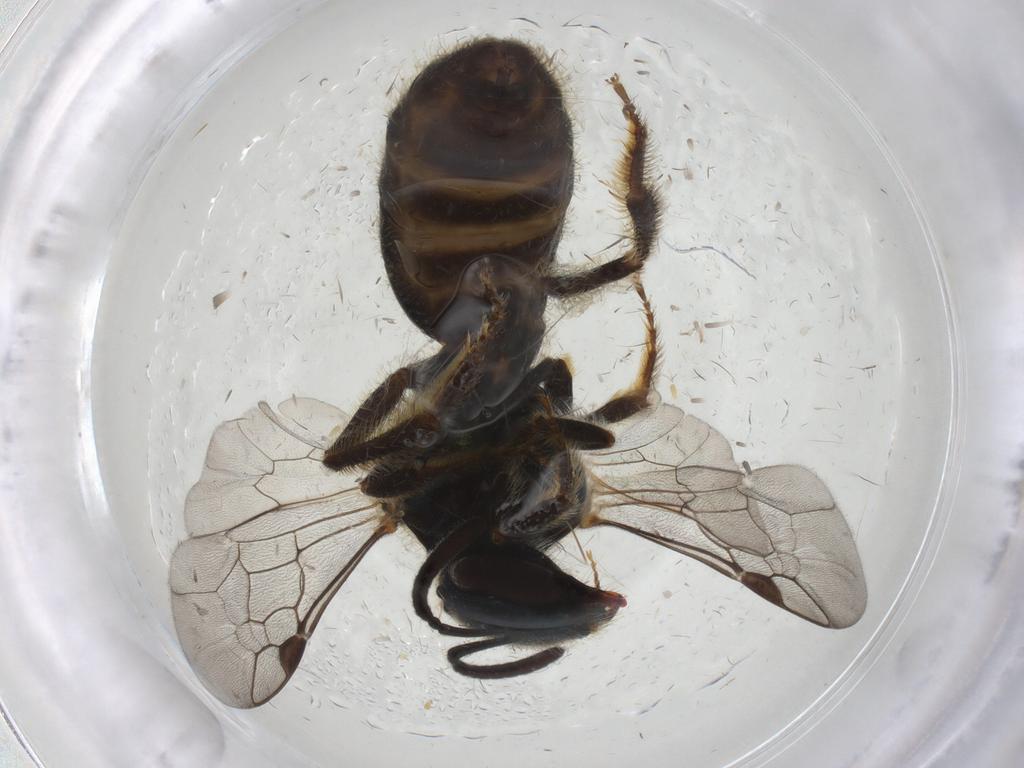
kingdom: Animalia
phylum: Arthropoda
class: Insecta
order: Hymenoptera
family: Halictidae
